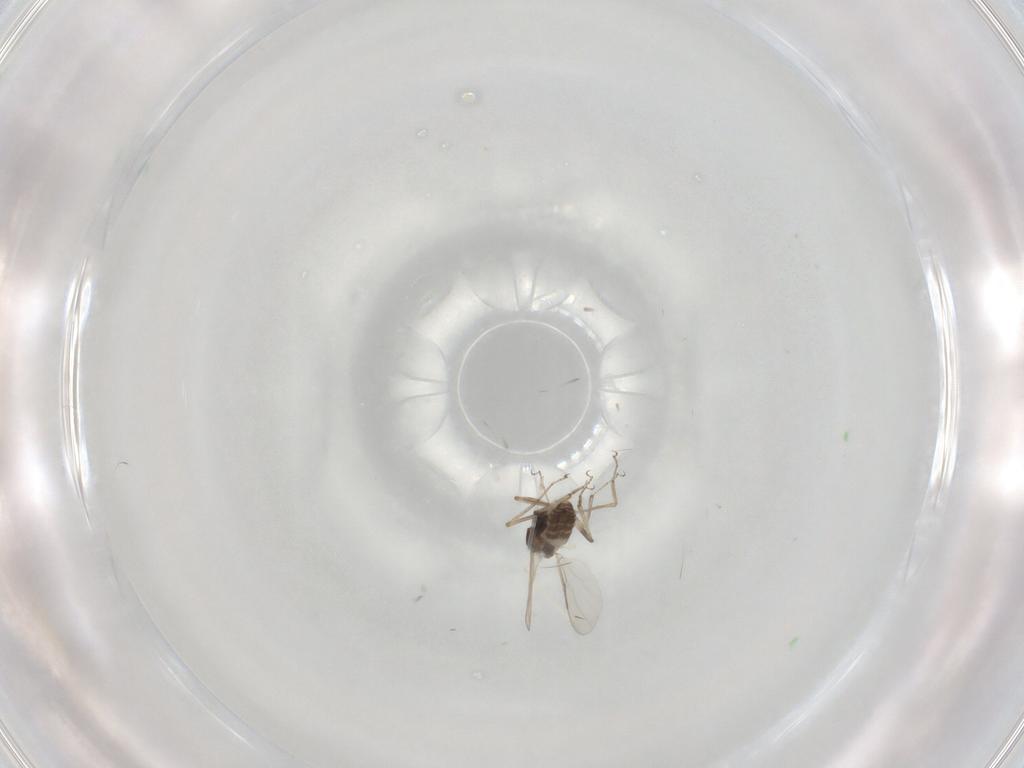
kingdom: Animalia
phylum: Arthropoda
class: Insecta
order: Diptera
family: Ceratopogonidae
